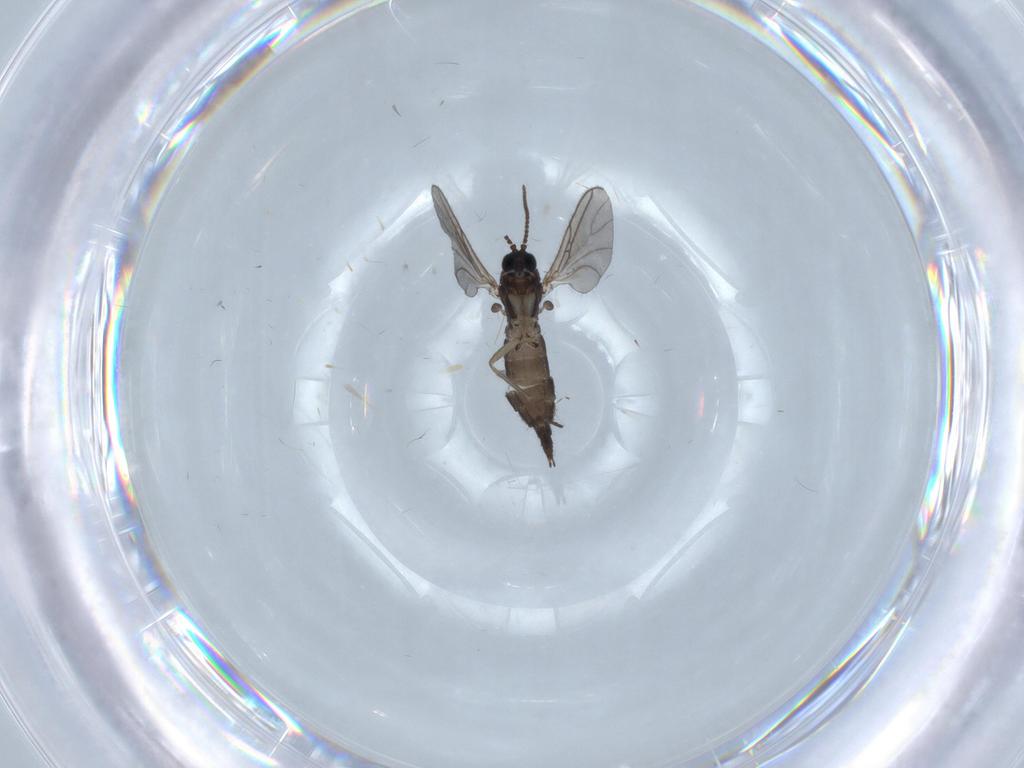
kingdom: Animalia
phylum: Arthropoda
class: Insecta
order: Diptera
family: Sciaridae
